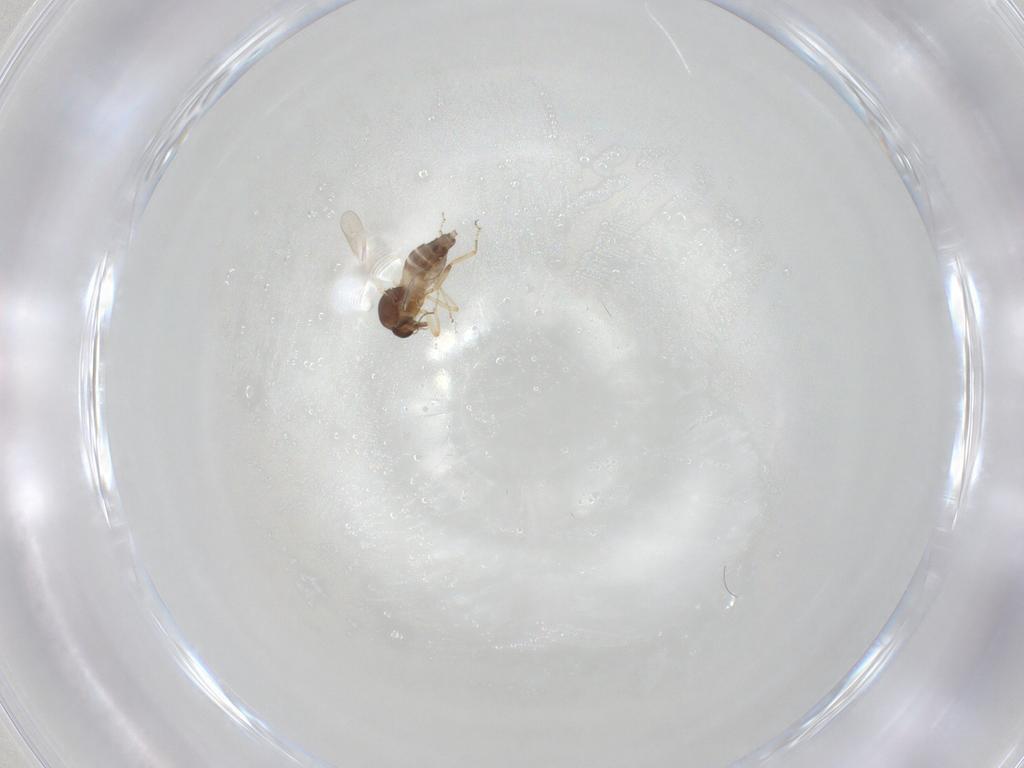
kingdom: Animalia
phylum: Arthropoda
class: Insecta
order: Diptera
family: Ceratopogonidae
